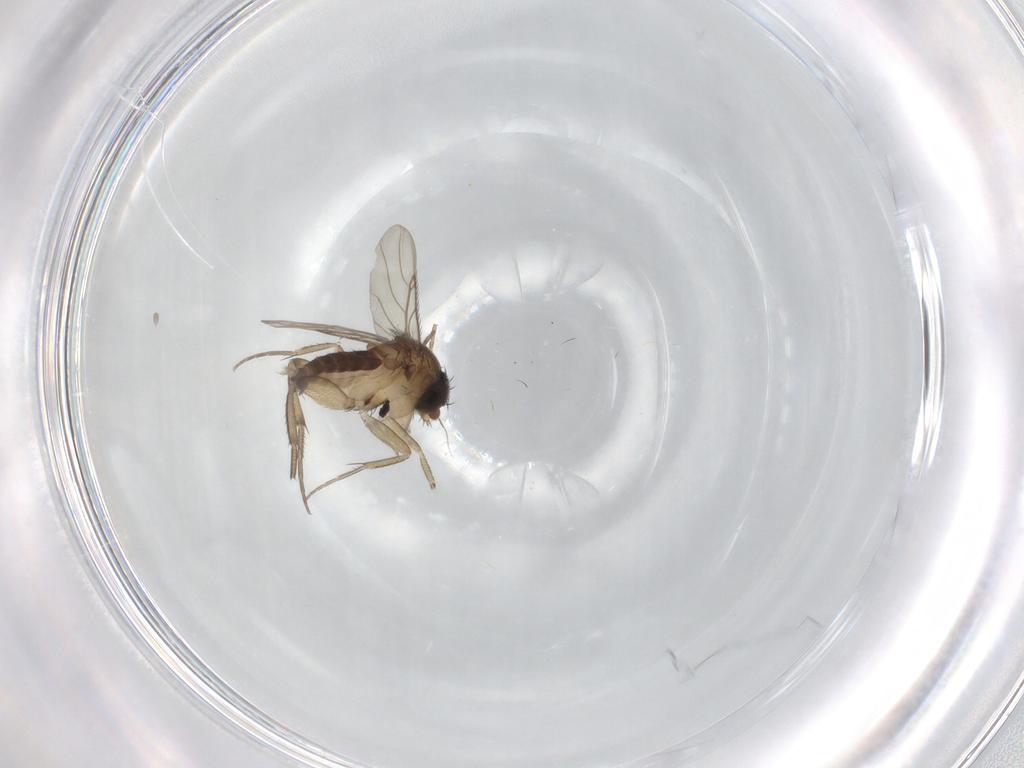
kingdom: Animalia
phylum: Arthropoda
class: Insecta
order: Diptera
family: Phoridae
